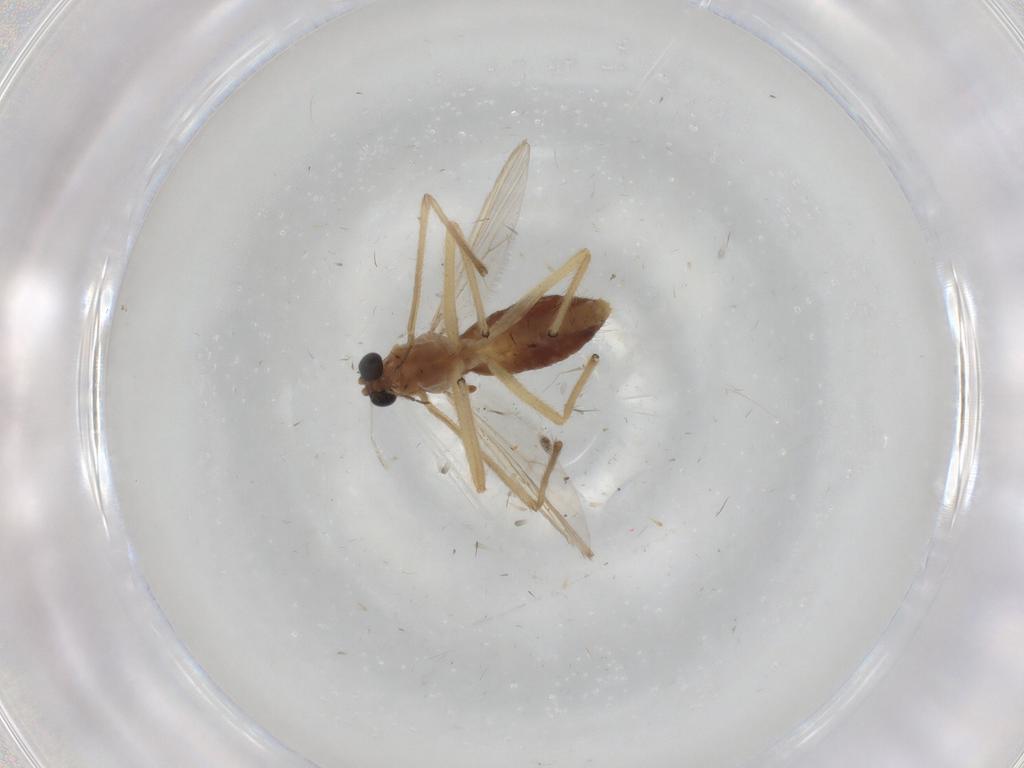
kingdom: Animalia
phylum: Arthropoda
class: Insecta
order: Diptera
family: Chironomidae
